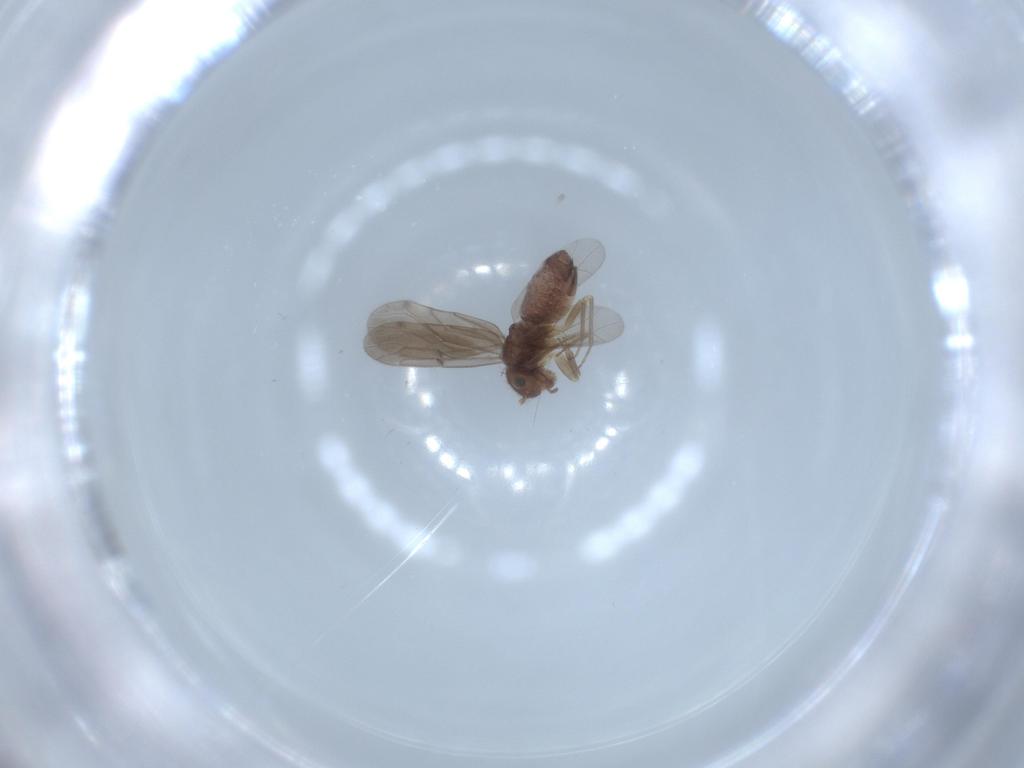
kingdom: Animalia
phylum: Arthropoda
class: Insecta
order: Psocodea
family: Ectopsocidae
